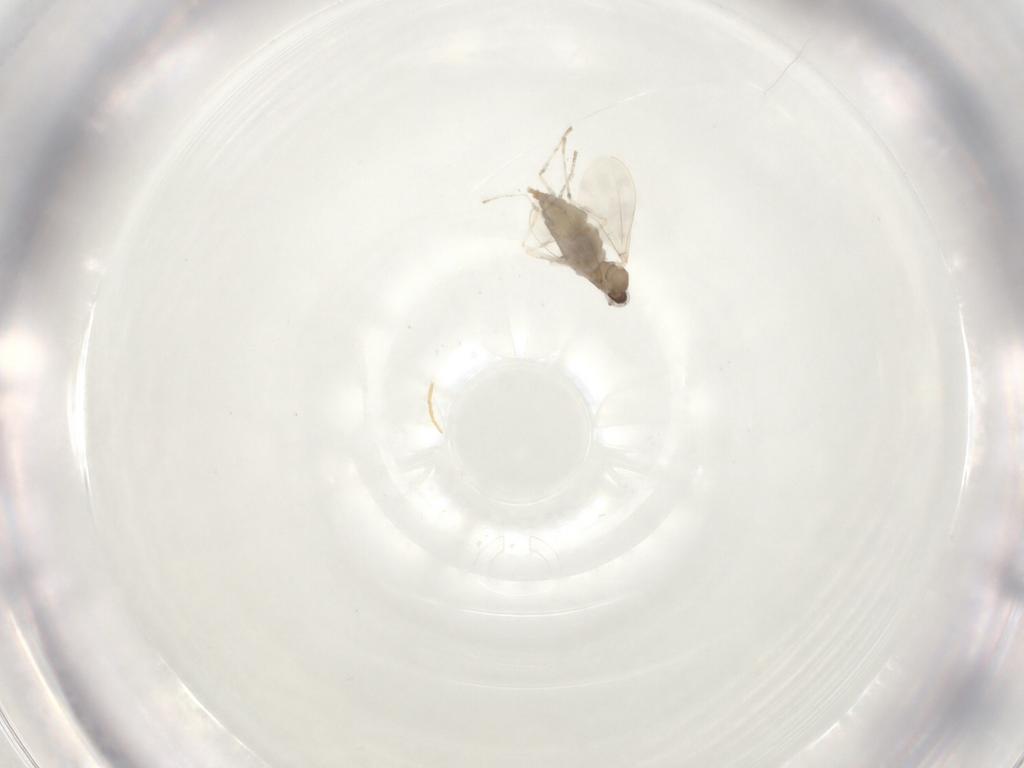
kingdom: Animalia
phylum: Arthropoda
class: Insecta
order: Diptera
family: Cecidomyiidae
